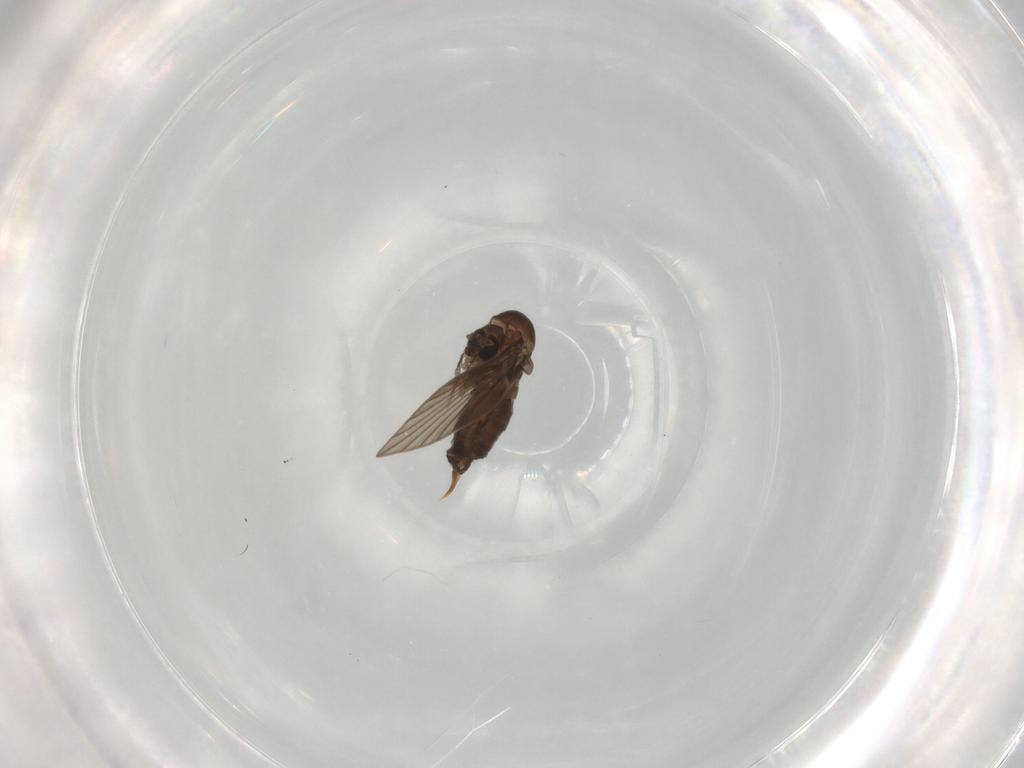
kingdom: Animalia
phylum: Arthropoda
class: Insecta
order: Diptera
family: Psychodidae
